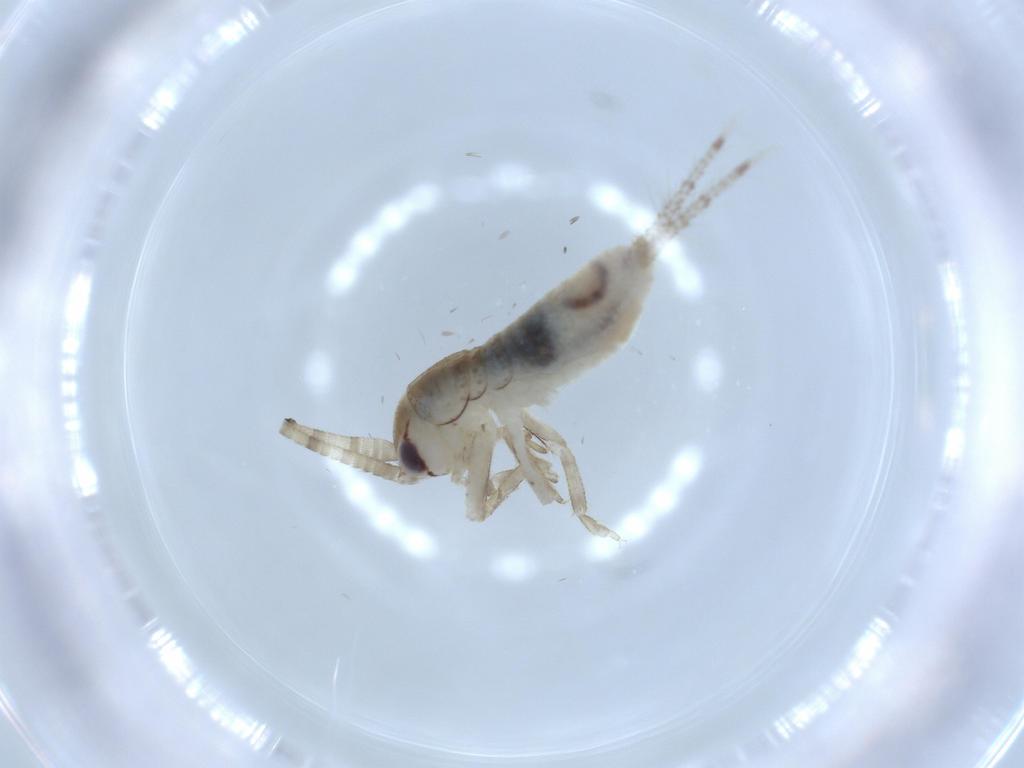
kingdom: Animalia
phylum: Arthropoda
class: Insecta
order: Orthoptera
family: Gryllidae
